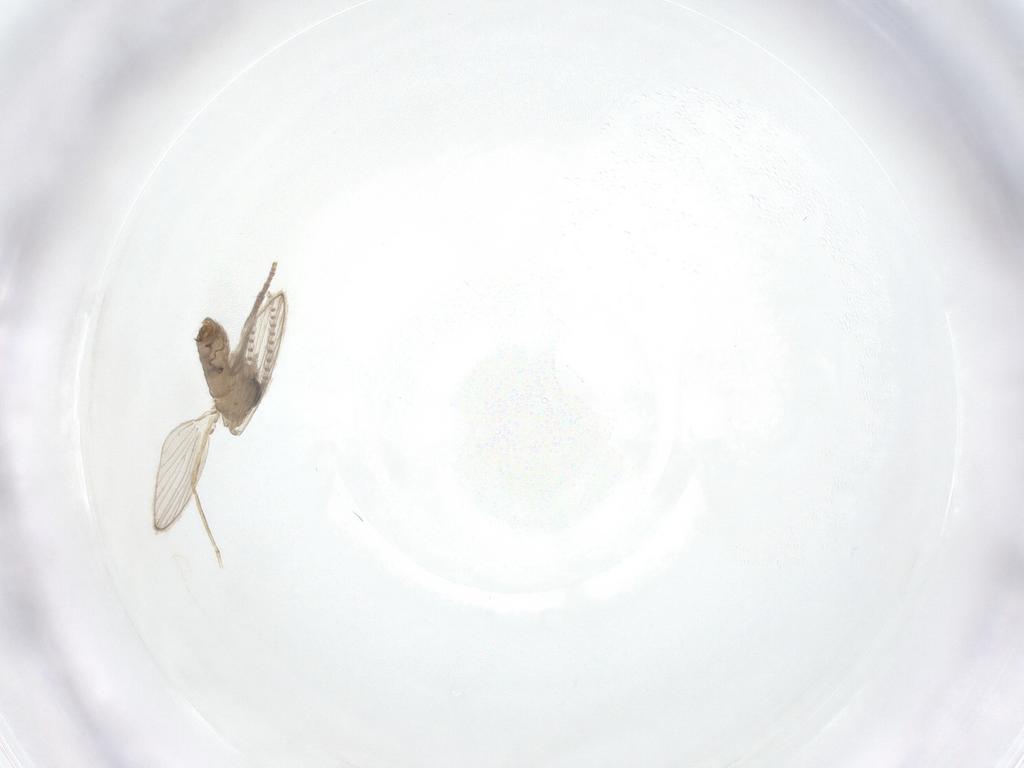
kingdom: Animalia
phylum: Arthropoda
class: Insecta
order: Diptera
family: Cecidomyiidae
